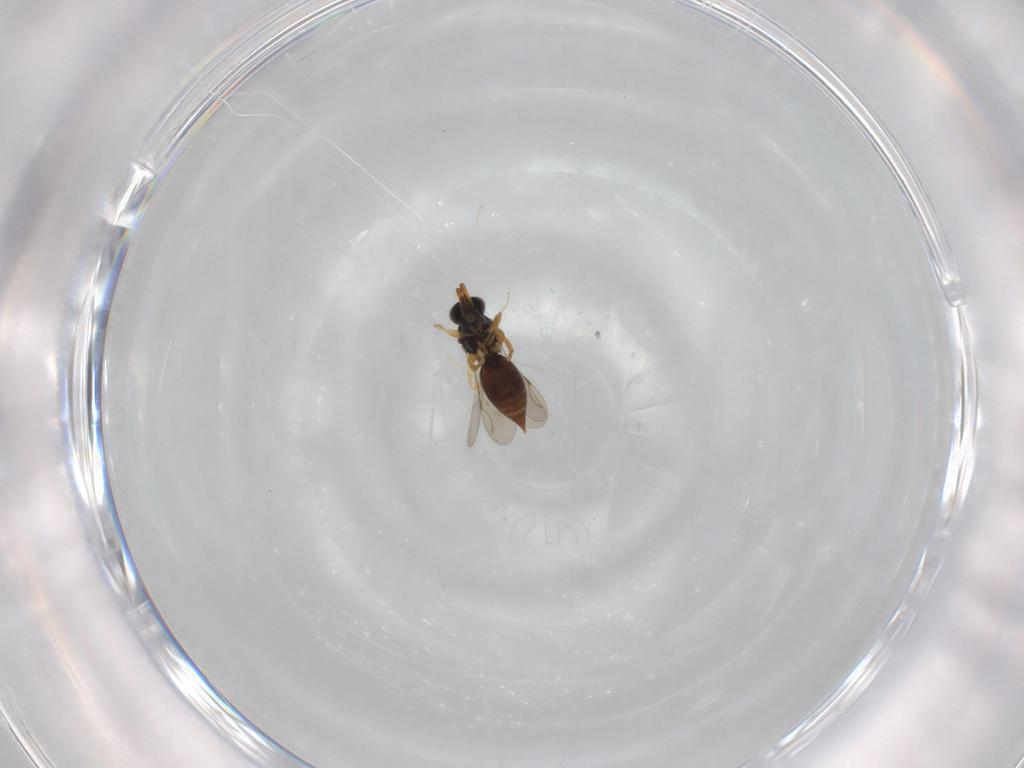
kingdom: Animalia
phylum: Arthropoda
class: Insecta
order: Hymenoptera
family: Ceraphronidae
